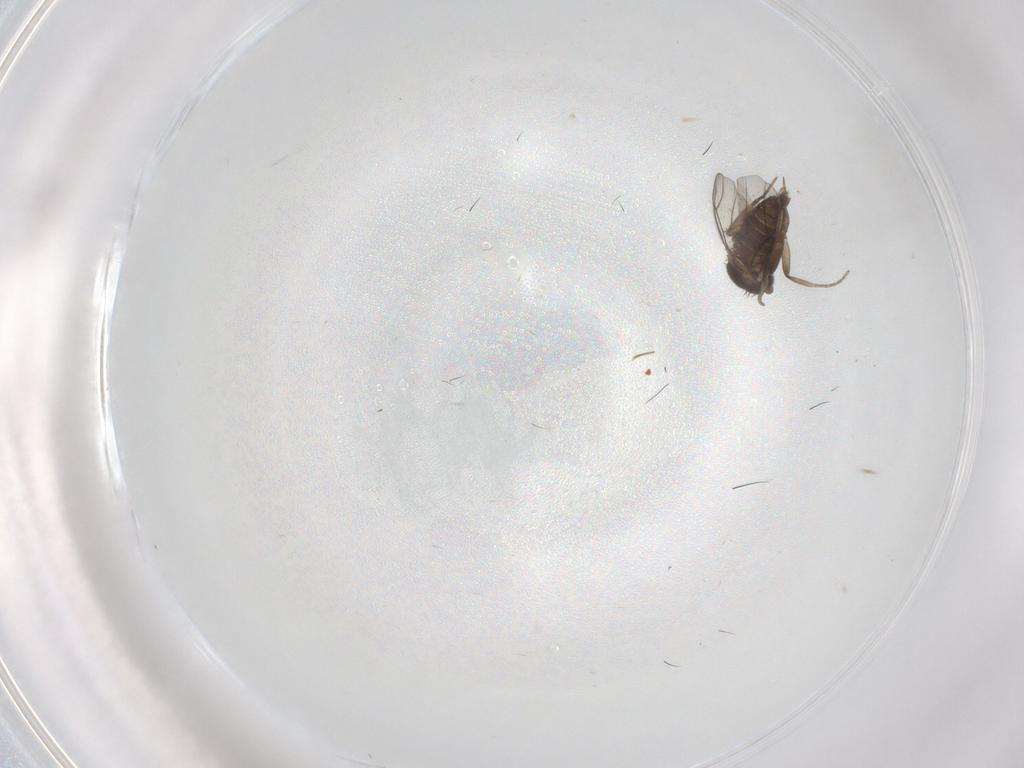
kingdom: Animalia
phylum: Arthropoda
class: Insecta
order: Diptera
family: Phoridae
